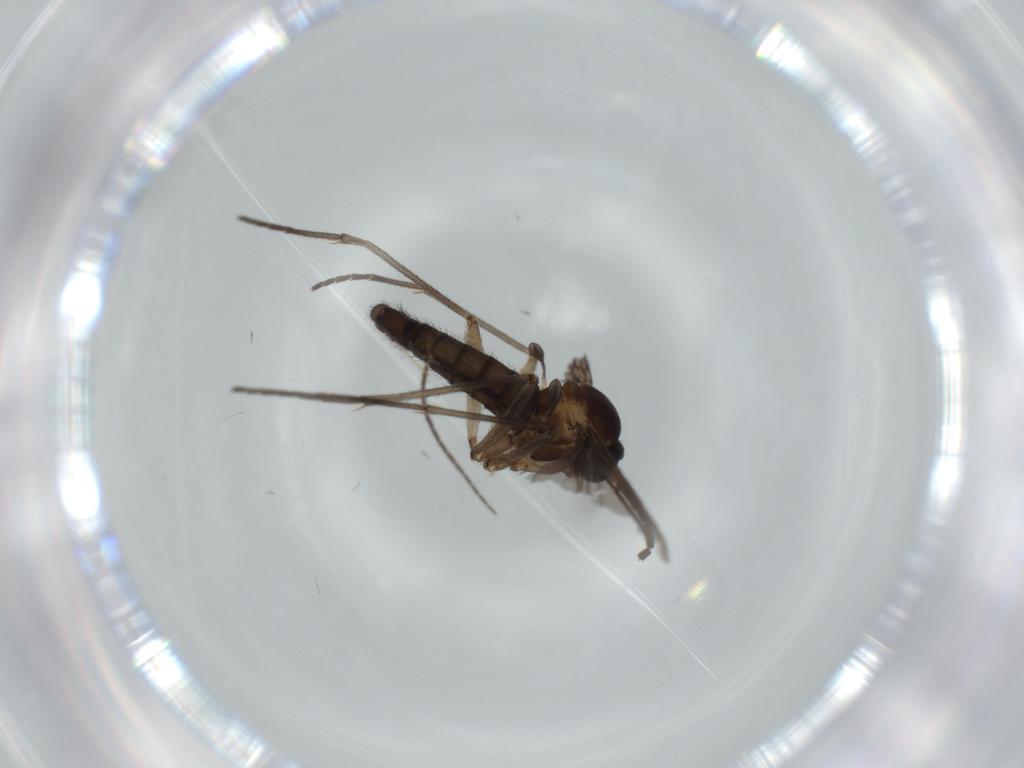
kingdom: Animalia
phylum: Arthropoda
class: Insecta
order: Diptera
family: Sciaridae
